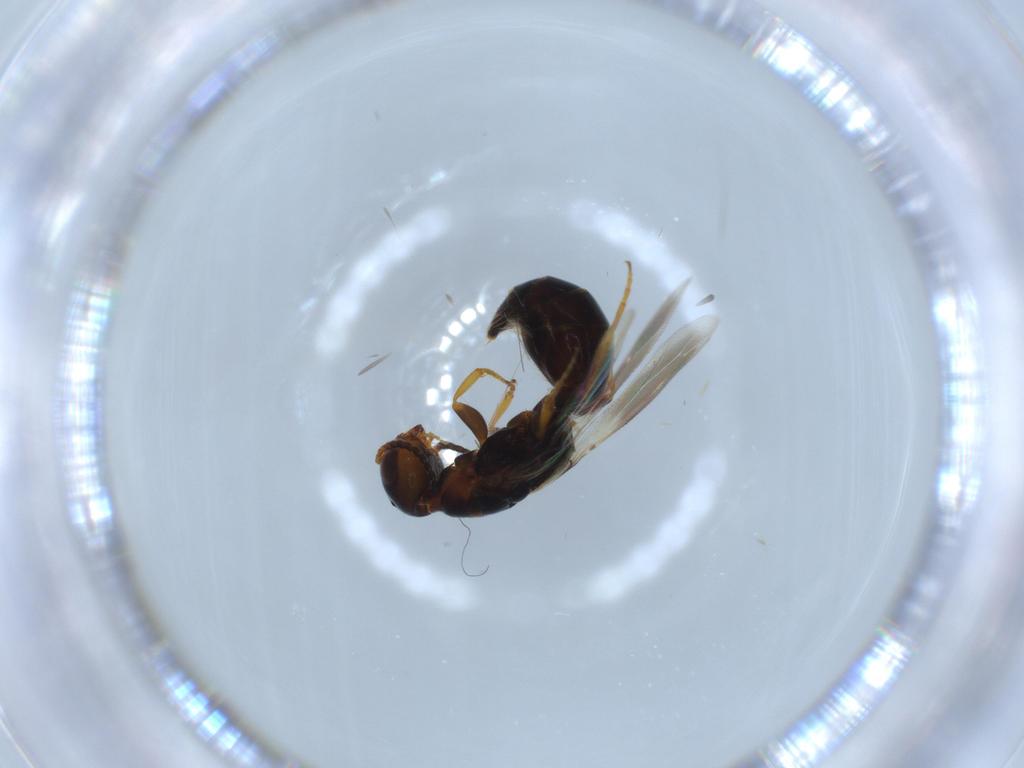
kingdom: Animalia
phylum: Arthropoda
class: Insecta
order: Hymenoptera
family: Bethylidae
